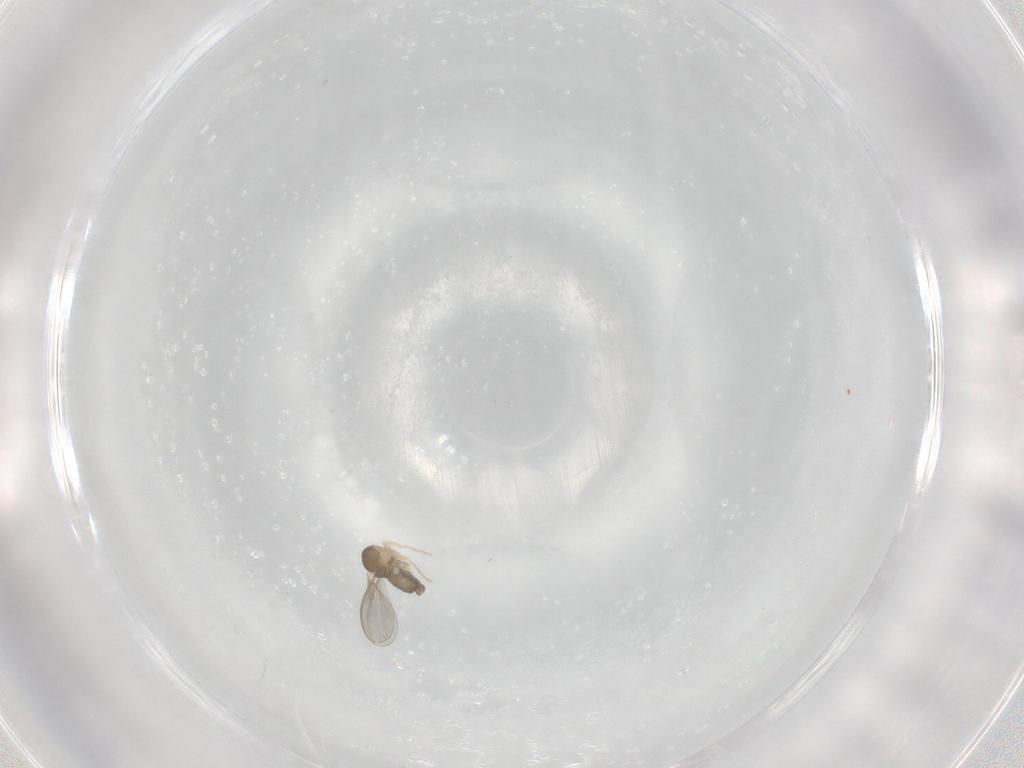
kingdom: Animalia
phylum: Arthropoda
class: Insecta
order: Diptera
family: Cecidomyiidae
